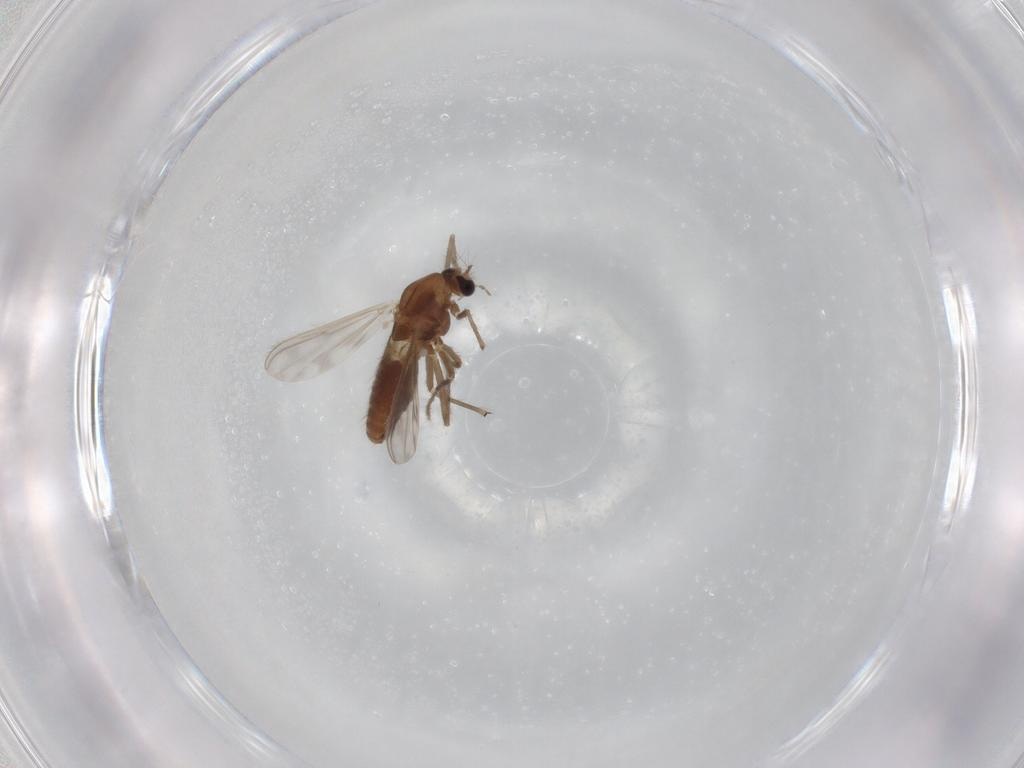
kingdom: Animalia
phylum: Arthropoda
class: Insecta
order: Diptera
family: Chironomidae
